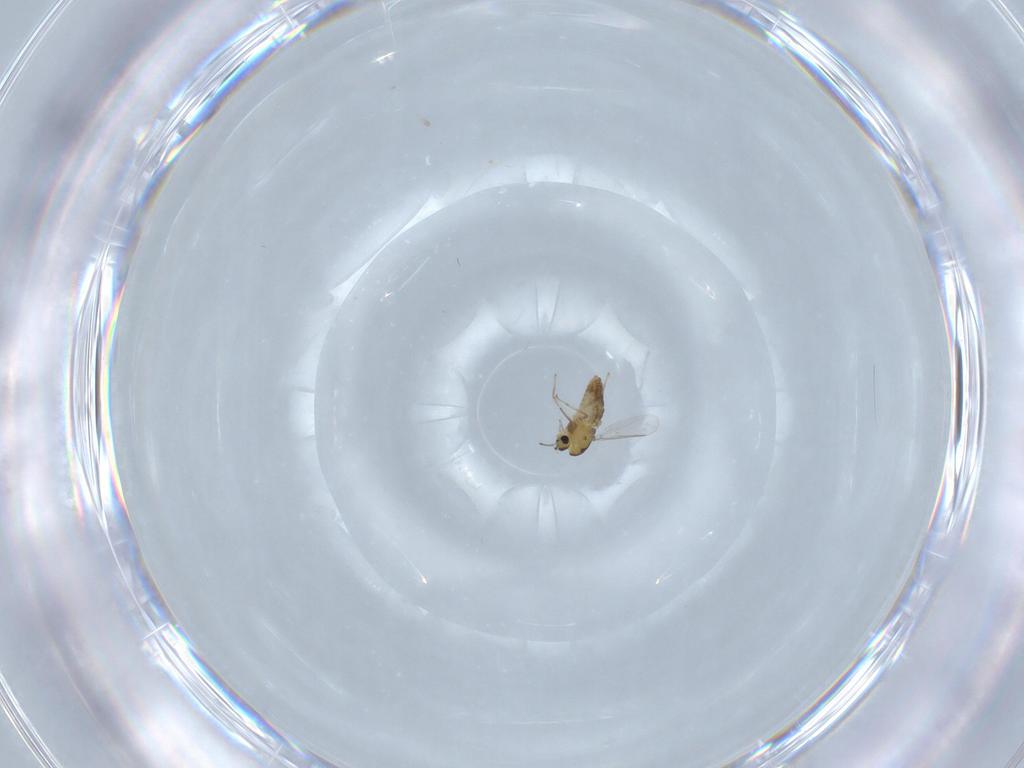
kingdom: Animalia
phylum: Arthropoda
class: Insecta
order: Diptera
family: Chironomidae
